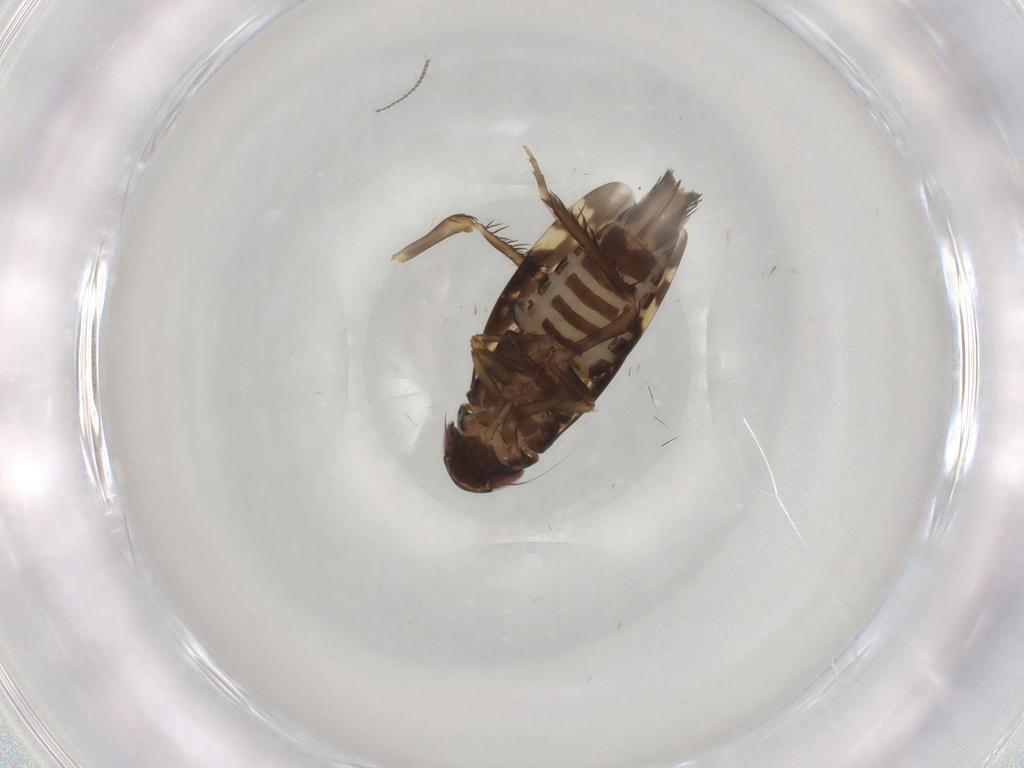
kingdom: Animalia
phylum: Arthropoda
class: Insecta
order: Hemiptera
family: Cicadellidae
